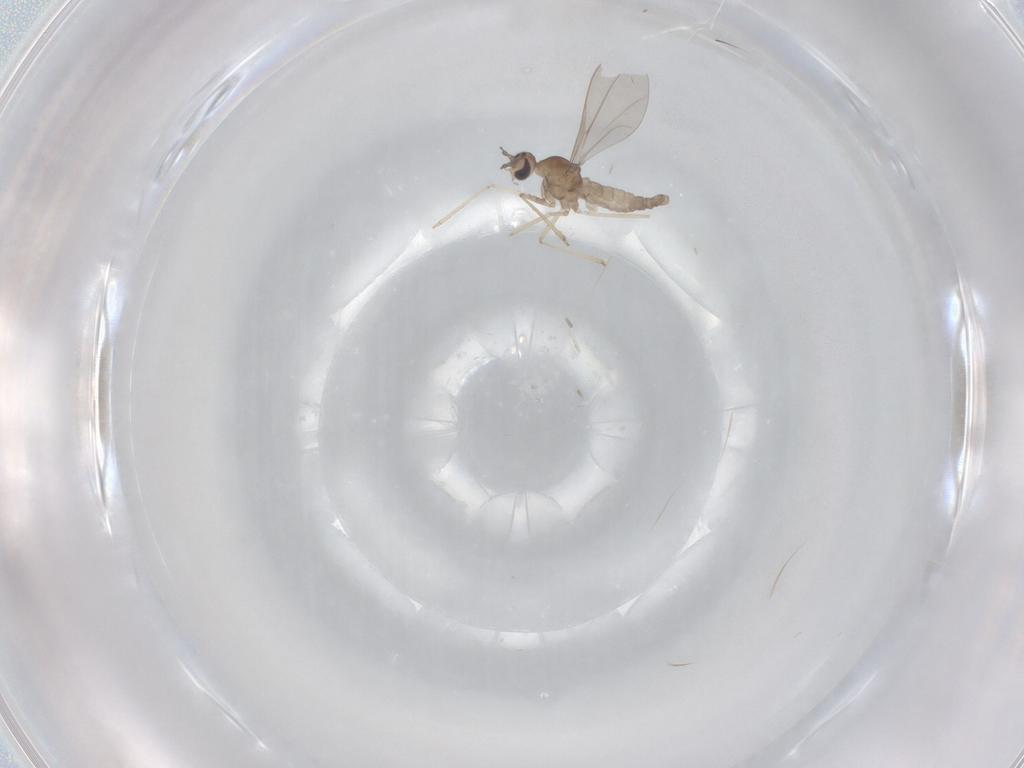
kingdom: Animalia
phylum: Arthropoda
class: Insecta
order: Diptera
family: Cecidomyiidae
